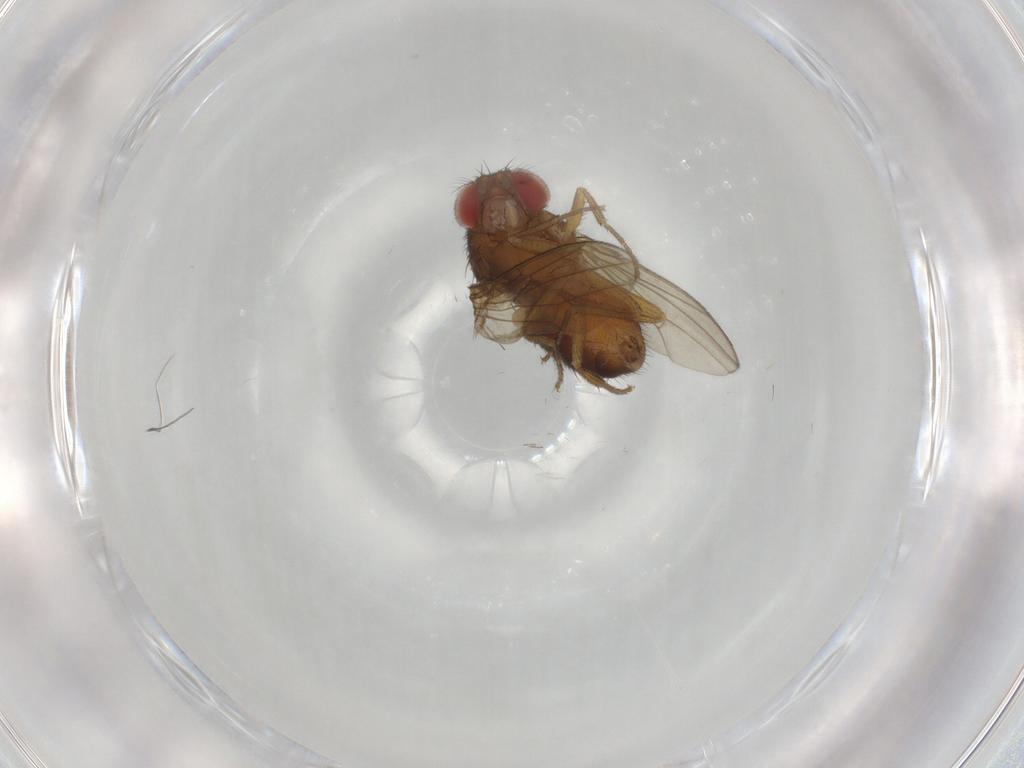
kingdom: Animalia
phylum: Arthropoda
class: Insecta
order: Diptera
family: Drosophilidae
